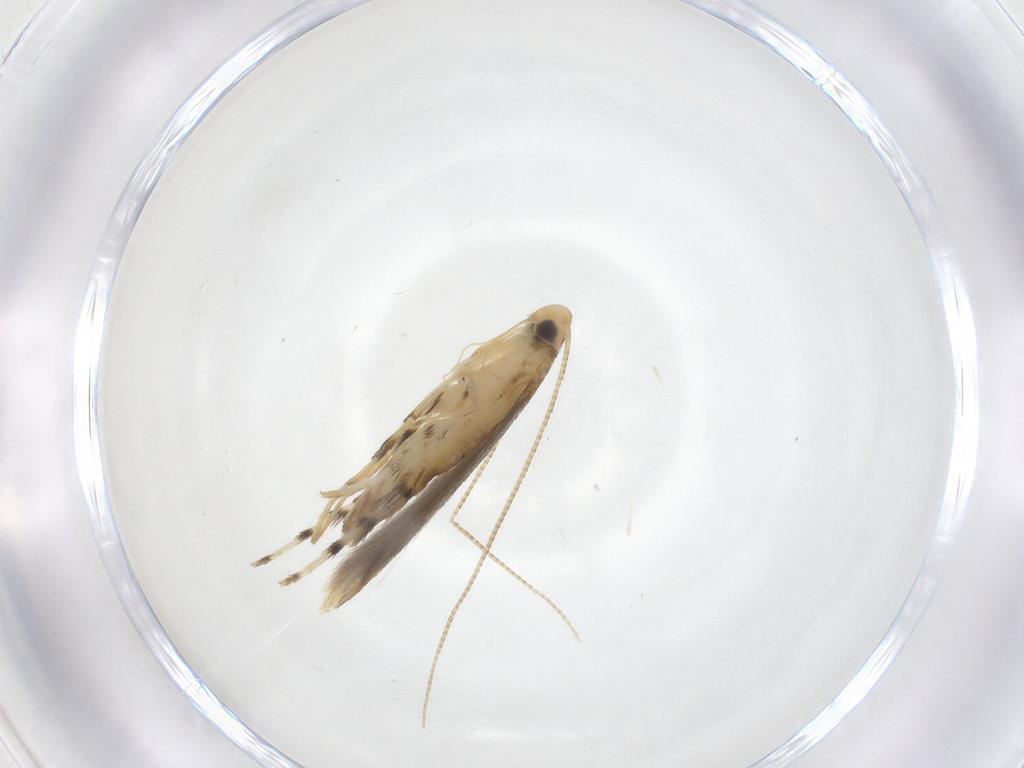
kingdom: Animalia
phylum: Arthropoda
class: Insecta
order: Lepidoptera
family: Gracillariidae
